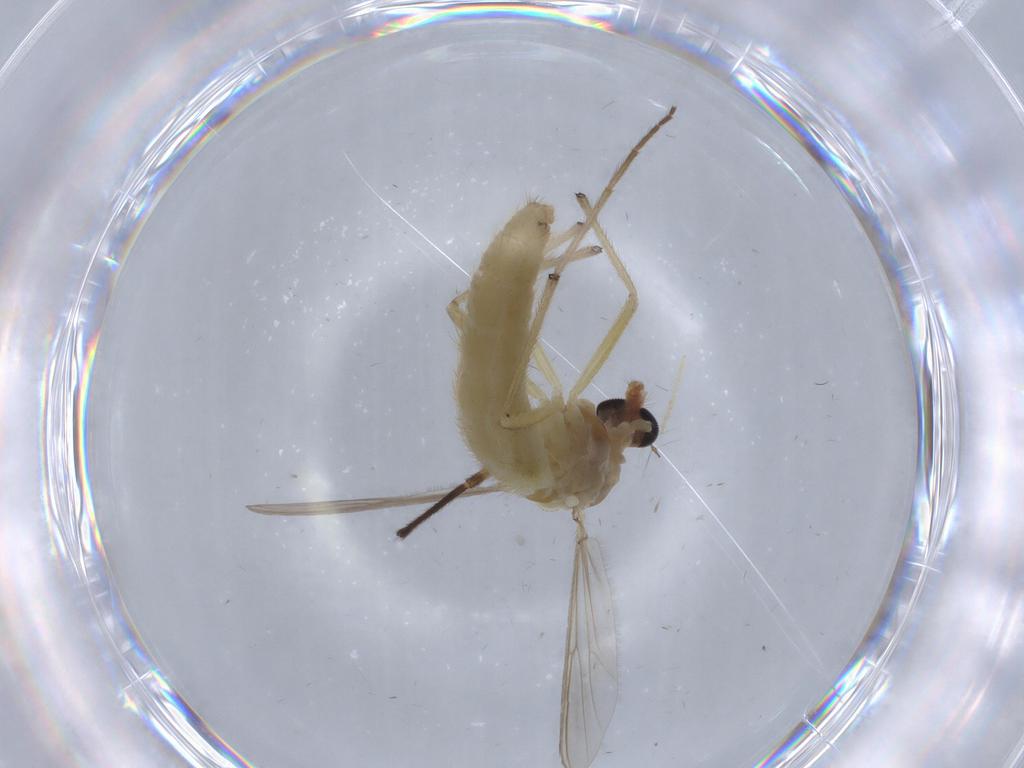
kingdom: Animalia
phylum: Arthropoda
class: Insecta
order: Diptera
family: Chironomidae
